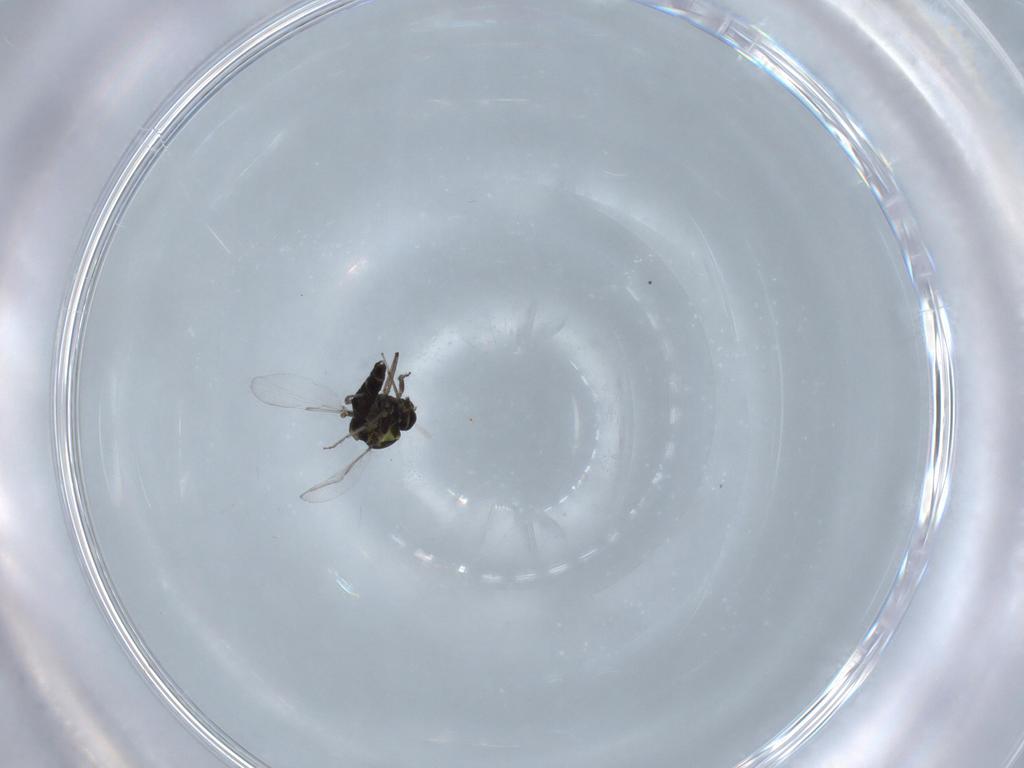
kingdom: Animalia
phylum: Arthropoda
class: Insecta
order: Diptera
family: Ceratopogonidae
